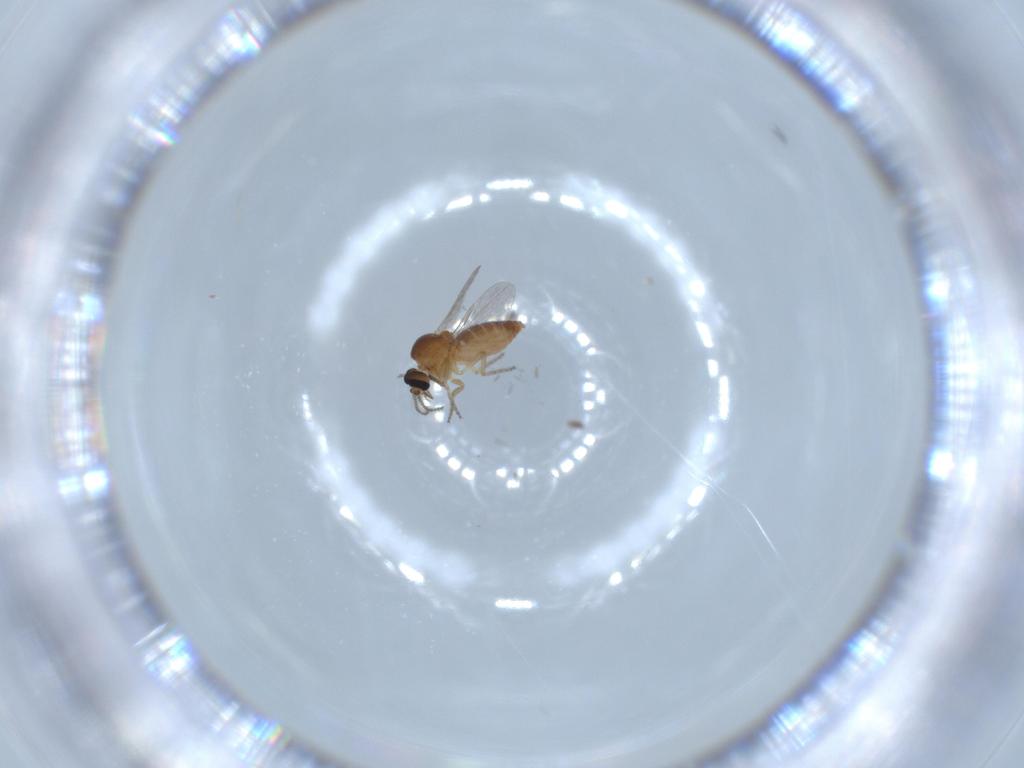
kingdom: Animalia
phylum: Arthropoda
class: Insecta
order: Diptera
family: Ceratopogonidae
